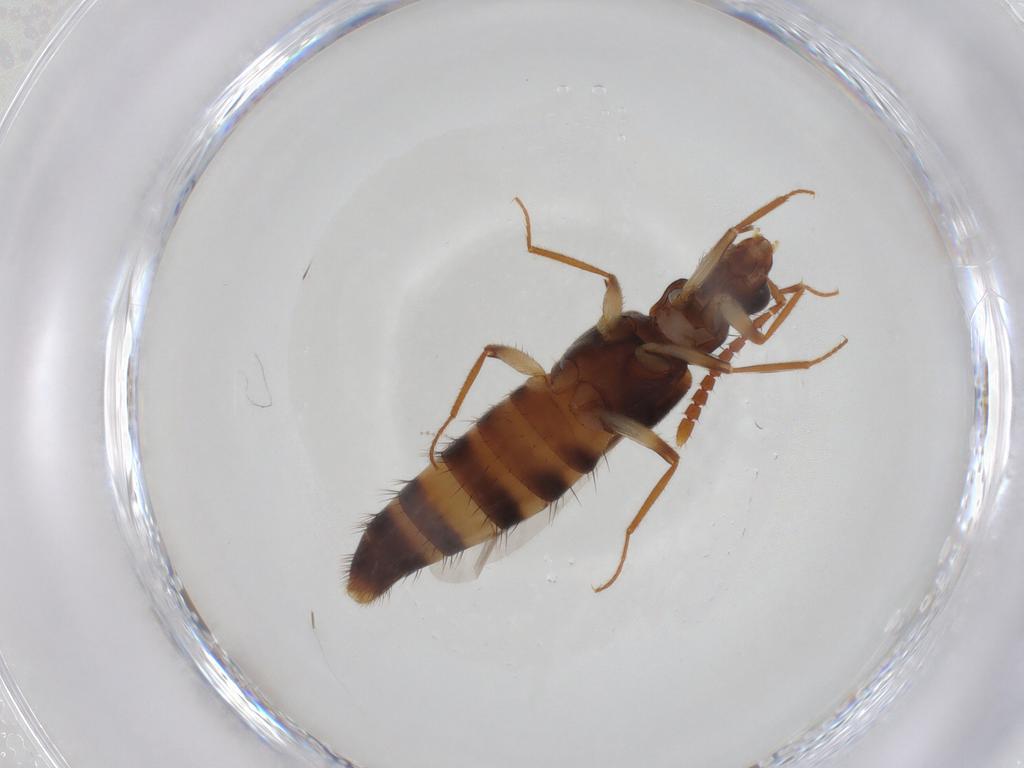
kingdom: Animalia
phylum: Arthropoda
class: Insecta
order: Coleoptera
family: Staphylinidae
